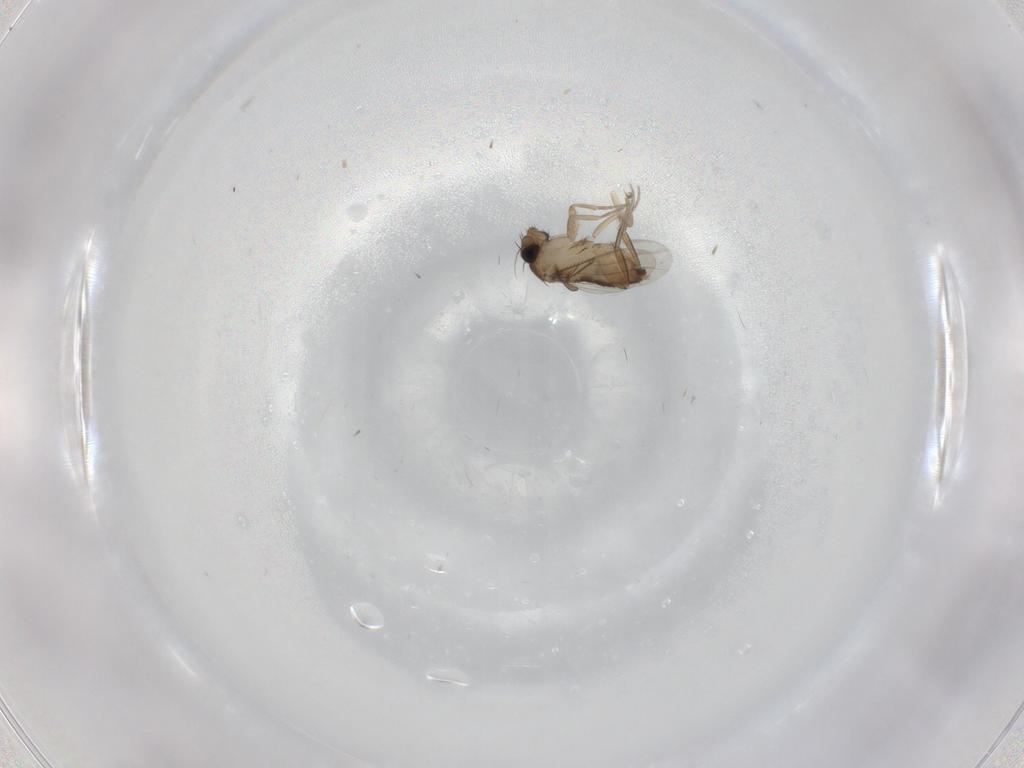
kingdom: Animalia
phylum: Arthropoda
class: Insecta
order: Diptera
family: Phoridae
